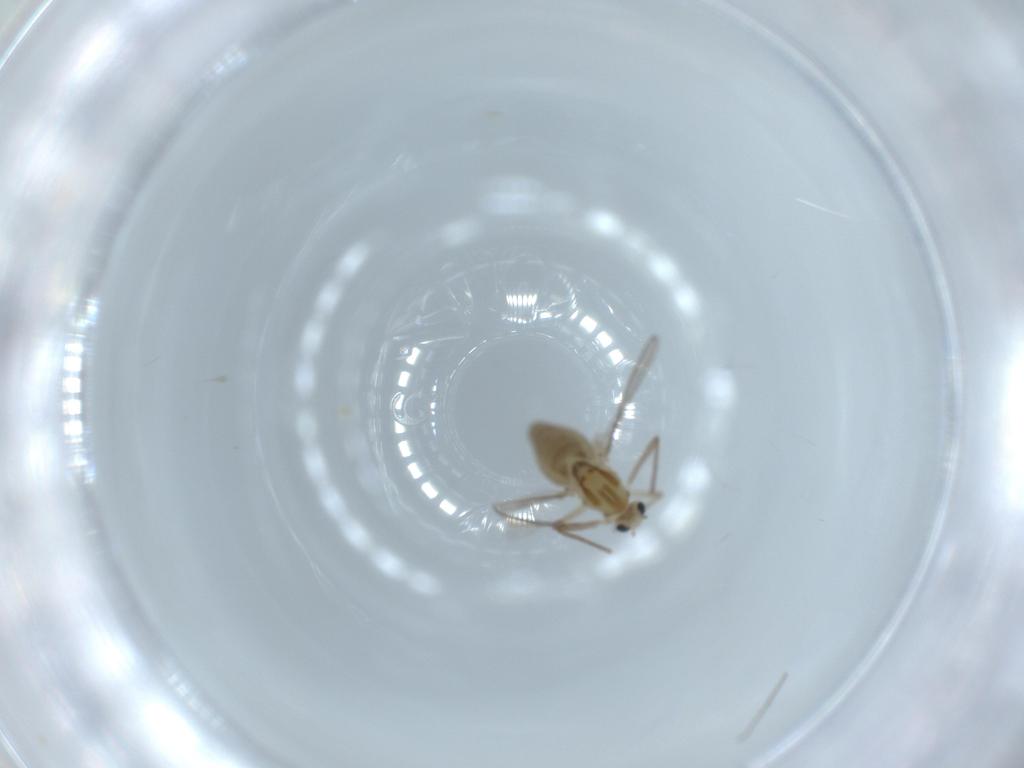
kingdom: Animalia
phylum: Arthropoda
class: Insecta
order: Diptera
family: Chironomidae
